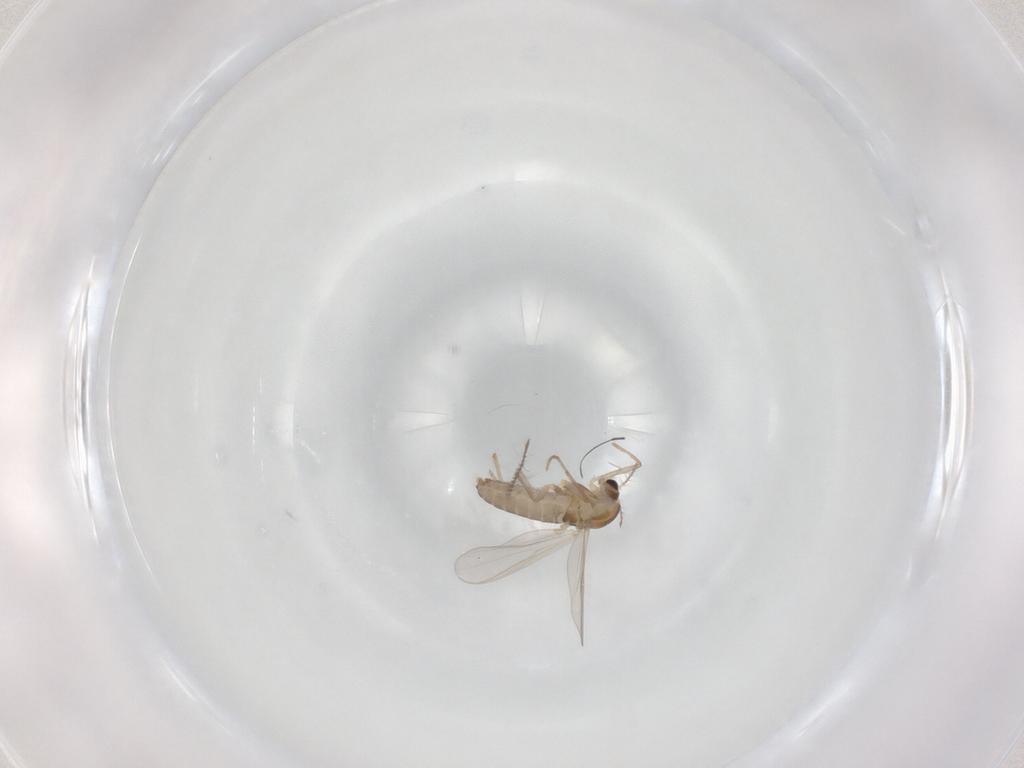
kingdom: Animalia
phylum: Arthropoda
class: Insecta
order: Diptera
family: Chironomidae
